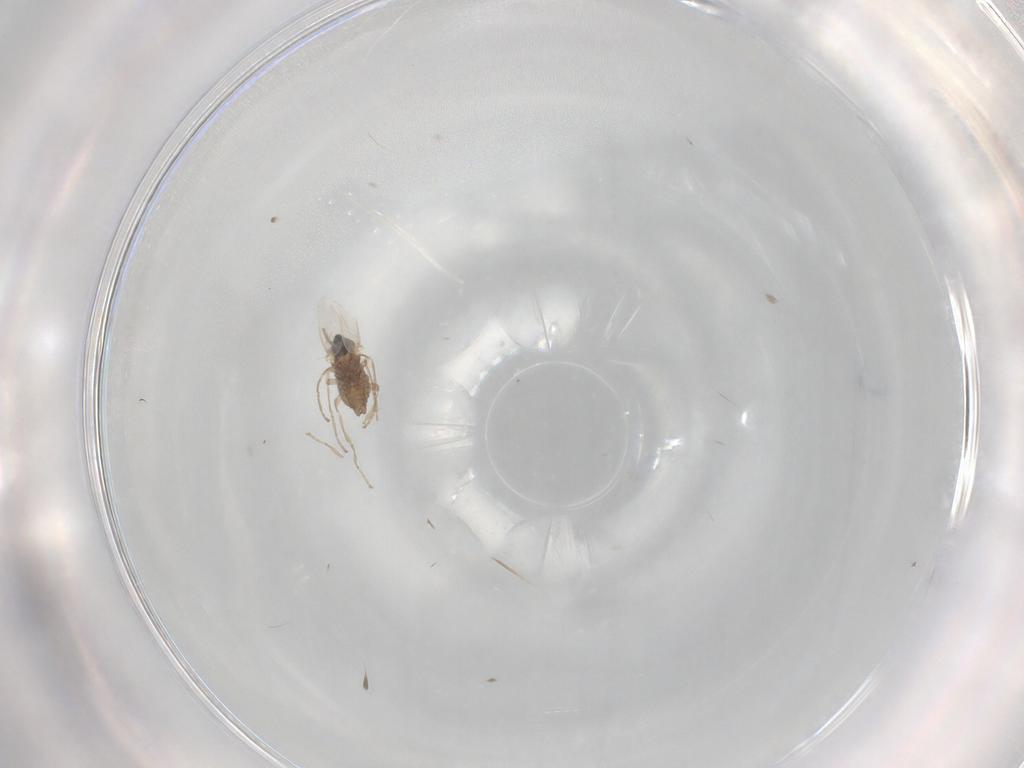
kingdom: Animalia
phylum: Arthropoda
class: Insecta
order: Diptera
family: Cecidomyiidae
